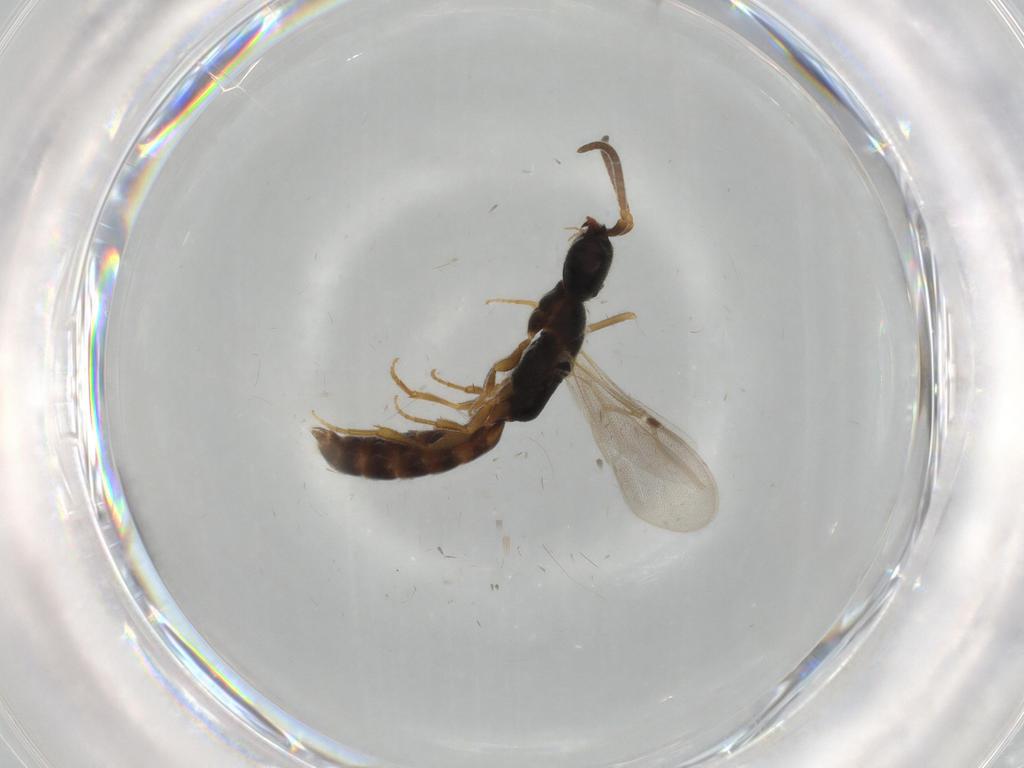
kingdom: Animalia
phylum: Arthropoda
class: Insecta
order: Hymenoptera
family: Bethylidae
